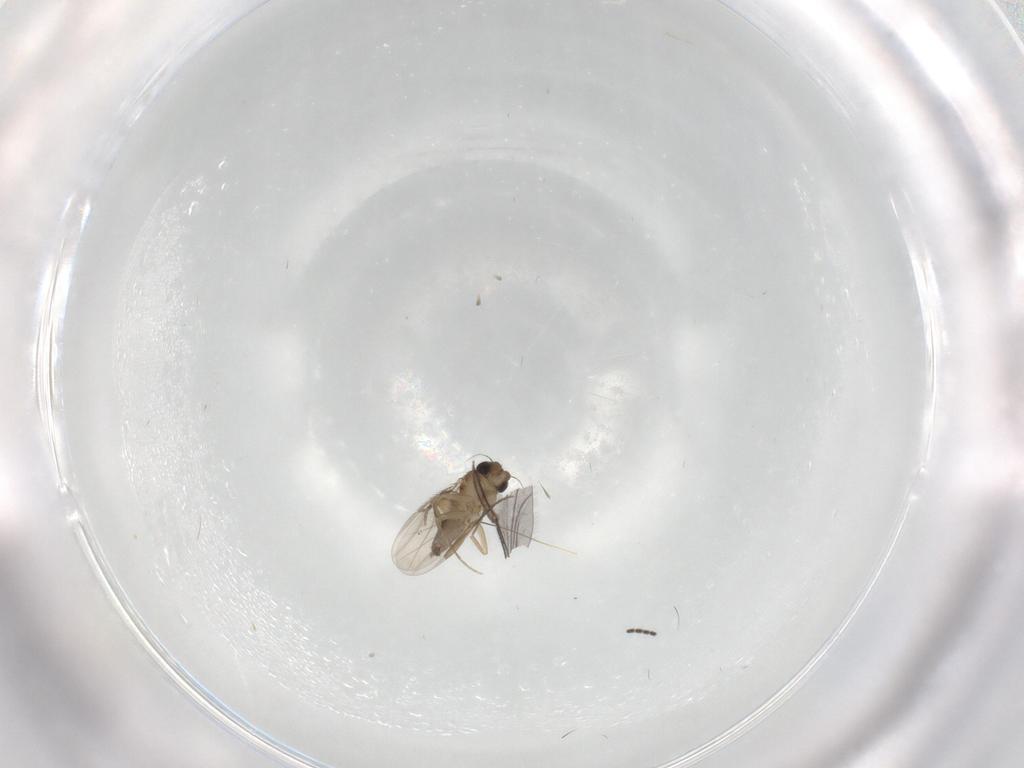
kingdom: Animalia
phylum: Arthropoda
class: Insecta
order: Diptera
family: Phoridae
